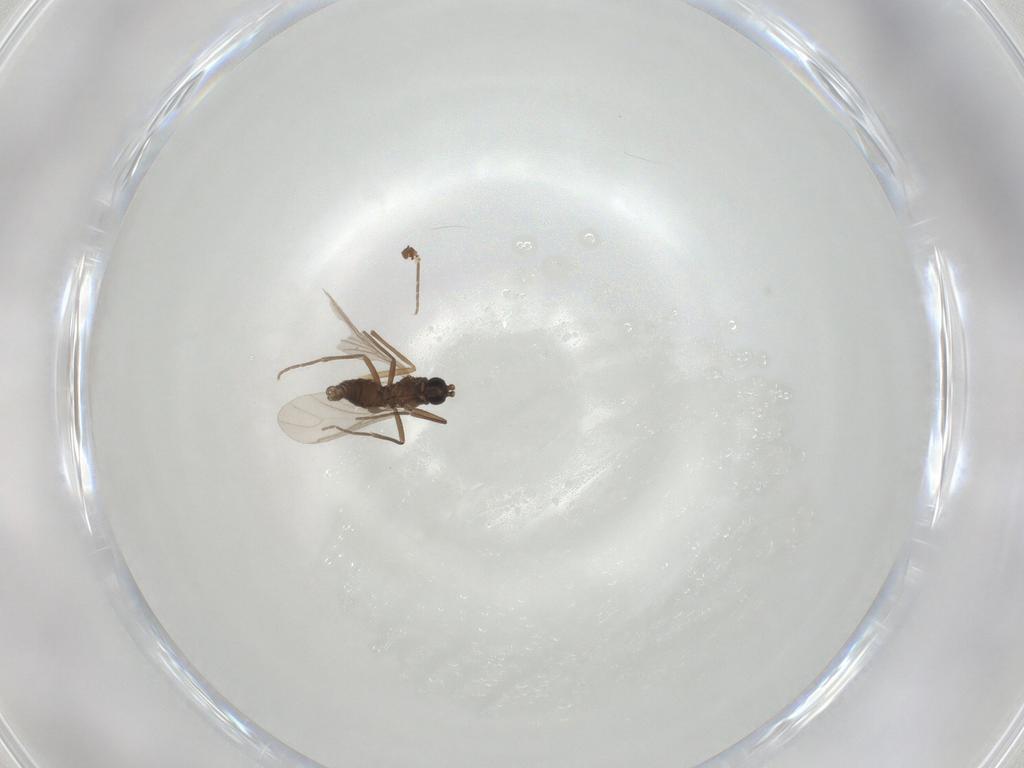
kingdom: Animalia
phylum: Arthropoda
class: Insecta
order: Diptera
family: Sciaridae
